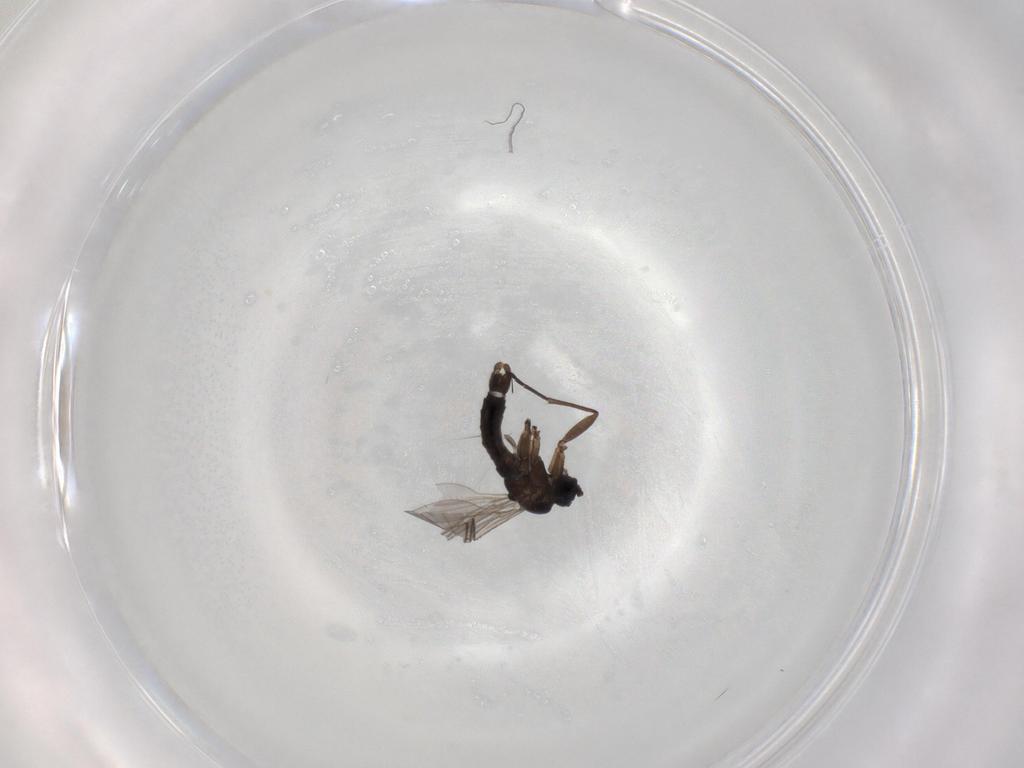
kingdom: Animalia
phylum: Arthropoda
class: Insecta
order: Diptera
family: Sciaridae
